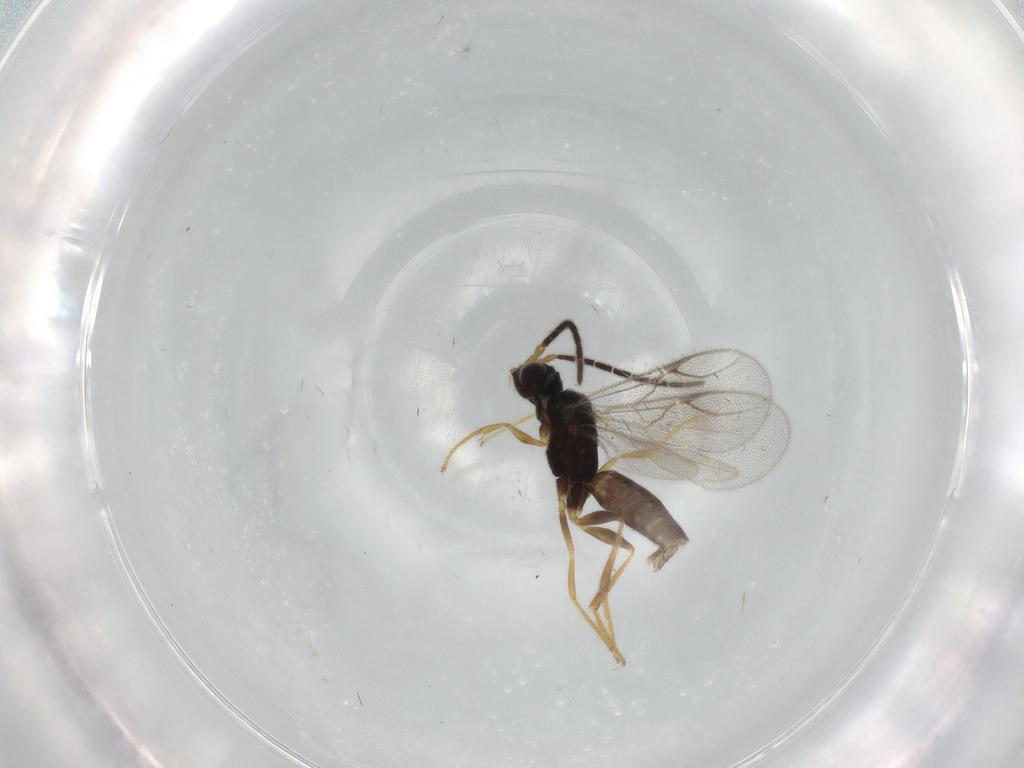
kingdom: Animalia
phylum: Arthropoda
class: Insecta
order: Hymenoptera
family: Dryinidae
